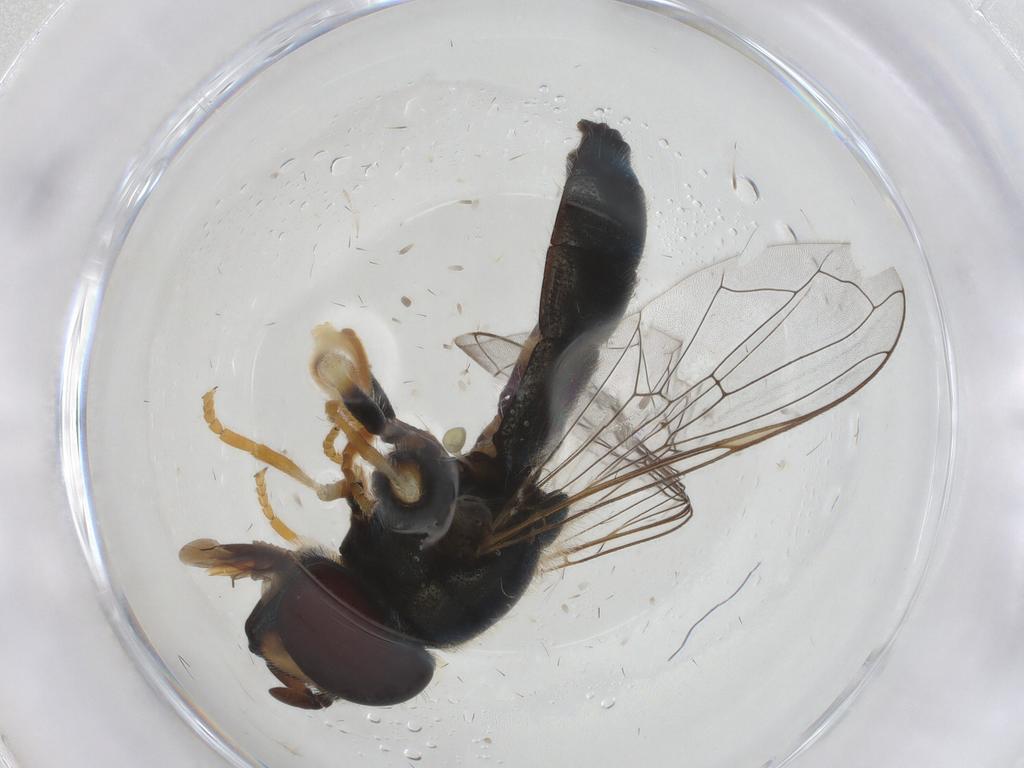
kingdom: Animalia
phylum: Arthropoda
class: Insecta
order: Diptera
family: Syrphidae
